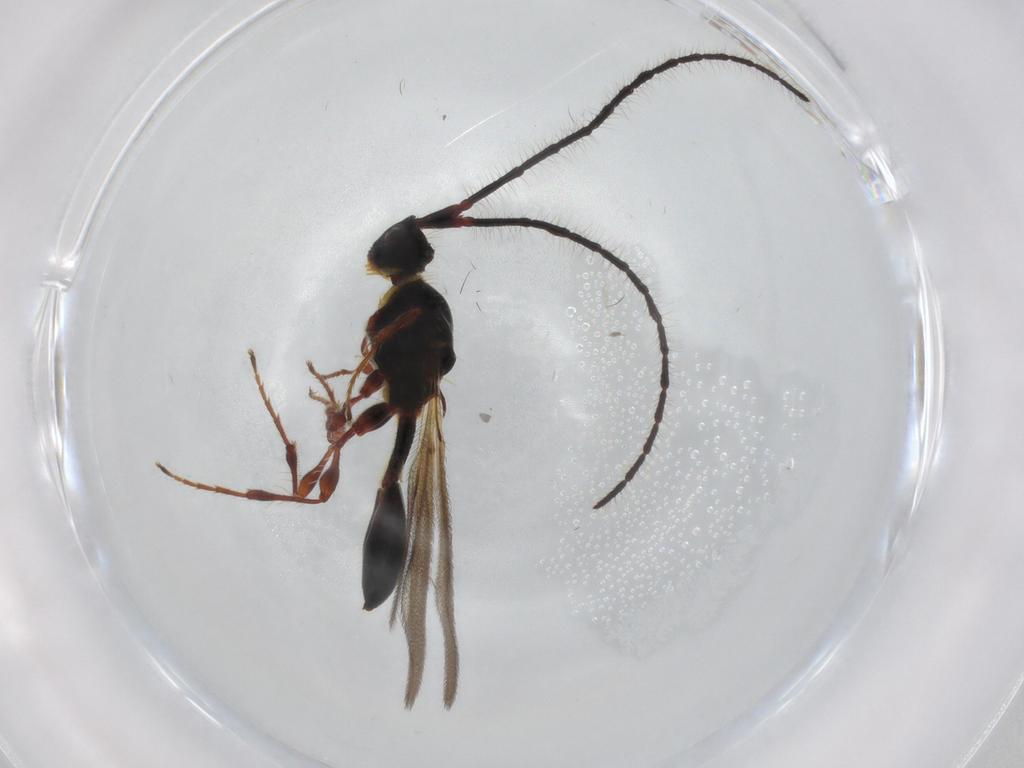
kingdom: Animalia
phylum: Arthropoda
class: Insecta
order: Hymenoptera
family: Diapriidae
